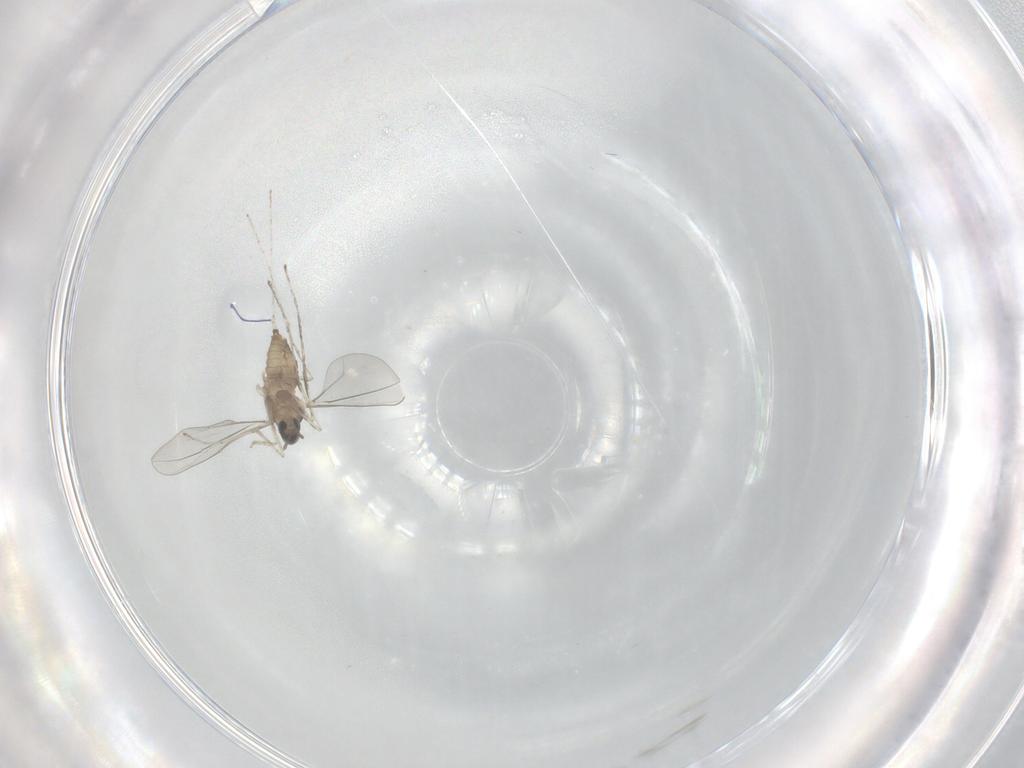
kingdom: Animalia
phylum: Arthropoda
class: Insecta
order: Diptera
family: Cecidomyiidae
